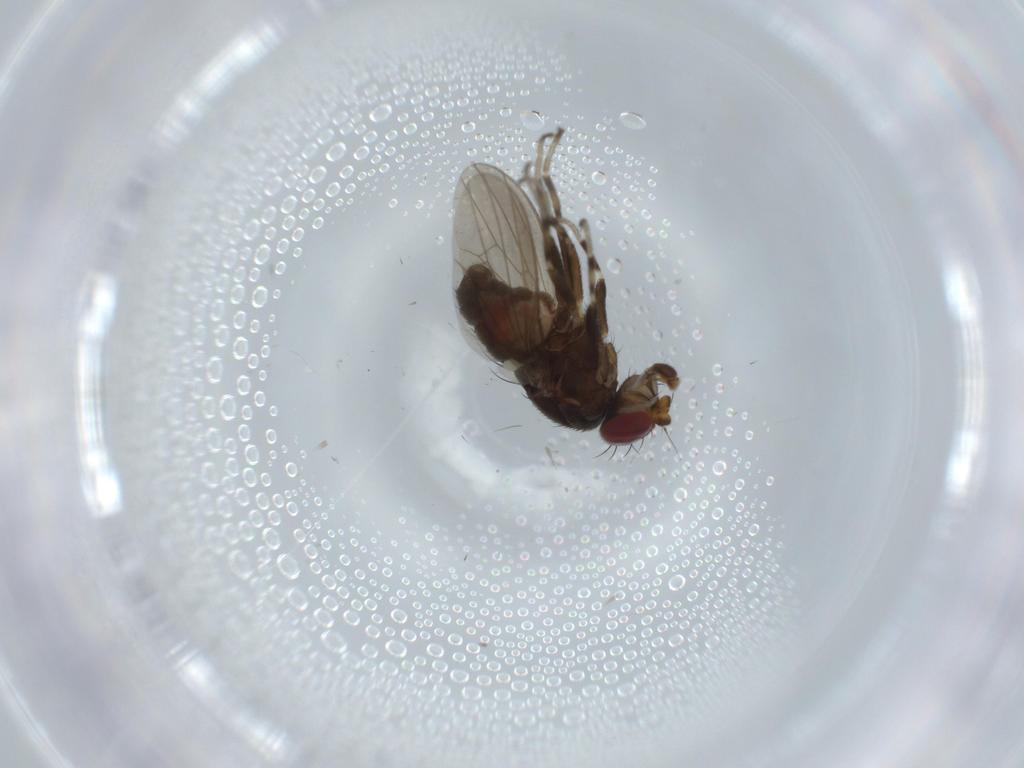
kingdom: Animalia
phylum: Arthropoda
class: Insecta
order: Diptera
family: Heleomyzidae
